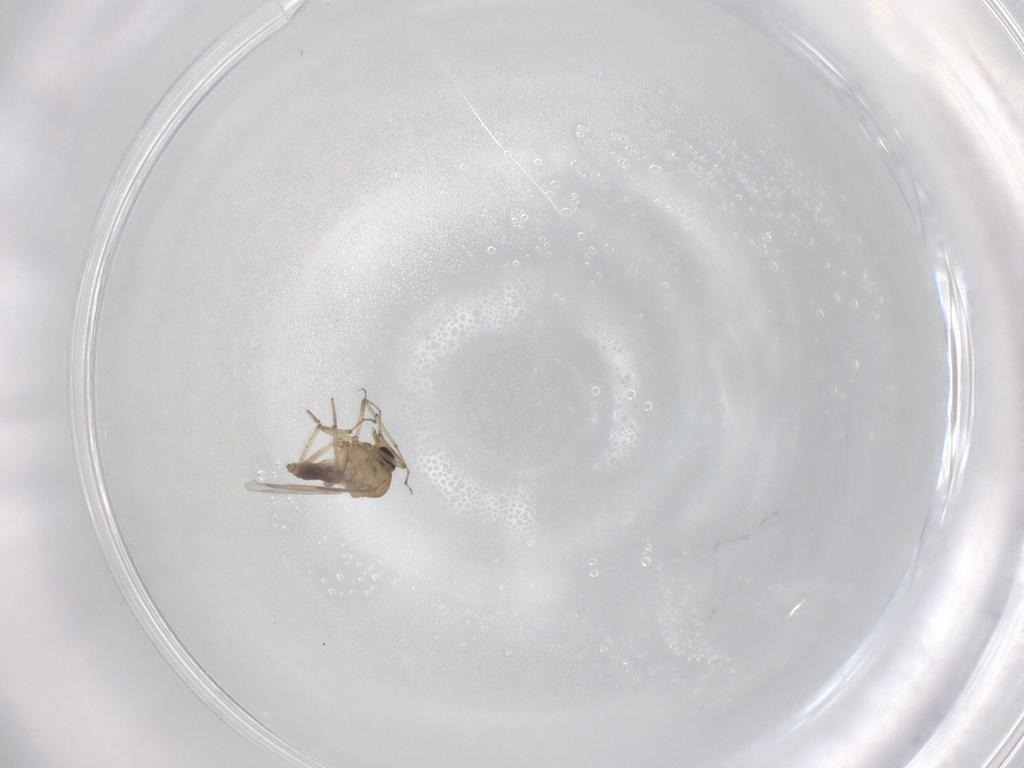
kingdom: Animalia
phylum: Arthropoda
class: Insecta
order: Diptera
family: Ceratopogonidae
